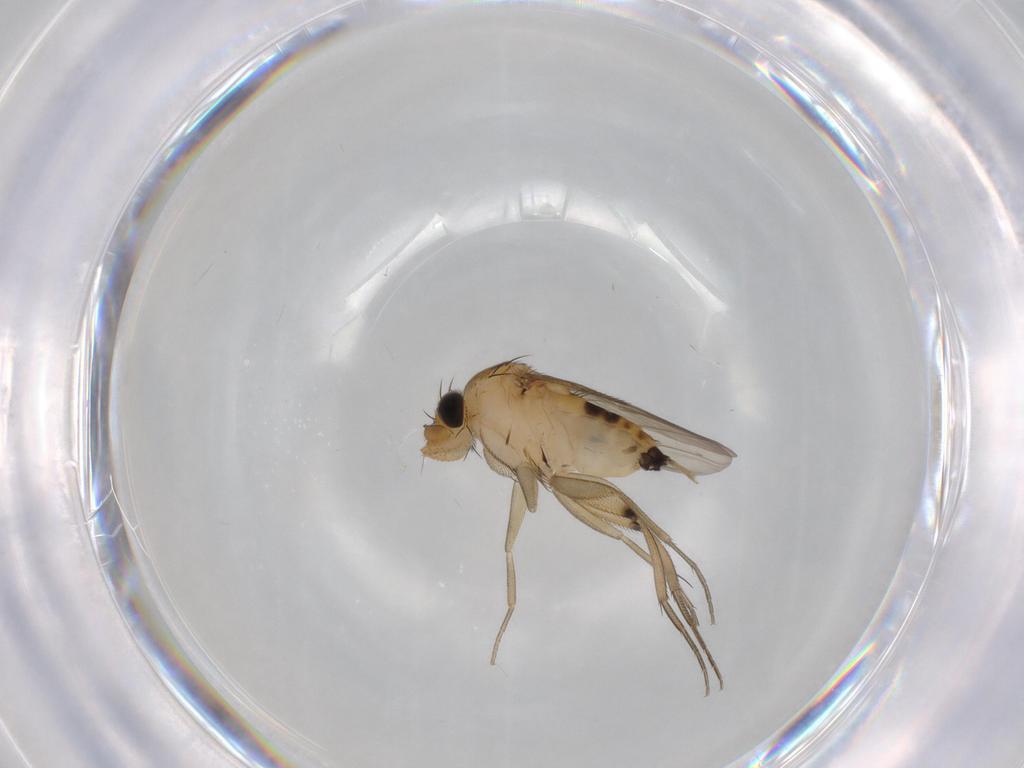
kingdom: Animalia
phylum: Arthropoda
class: Insecta
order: Diptera
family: Phoridae
